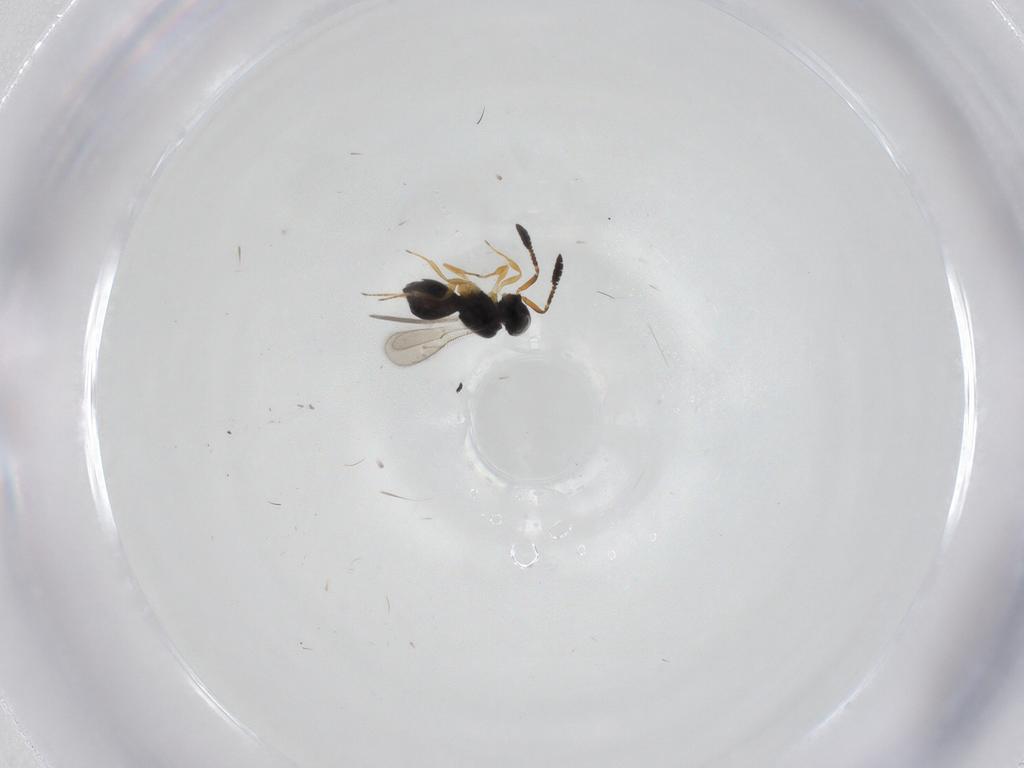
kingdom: Animalia
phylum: Arthropoda
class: Insecta
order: Hymenoptera
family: Scelionidae
